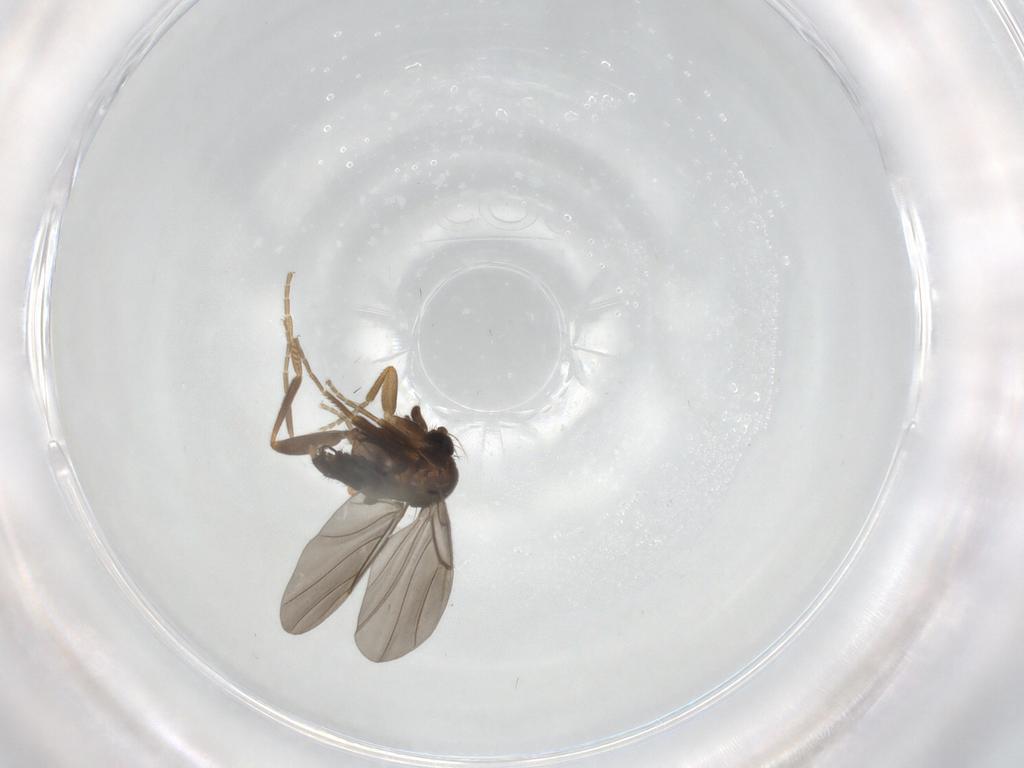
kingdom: Animalia
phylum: Arthropoda
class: Insecta
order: Diptera
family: Phoridae
